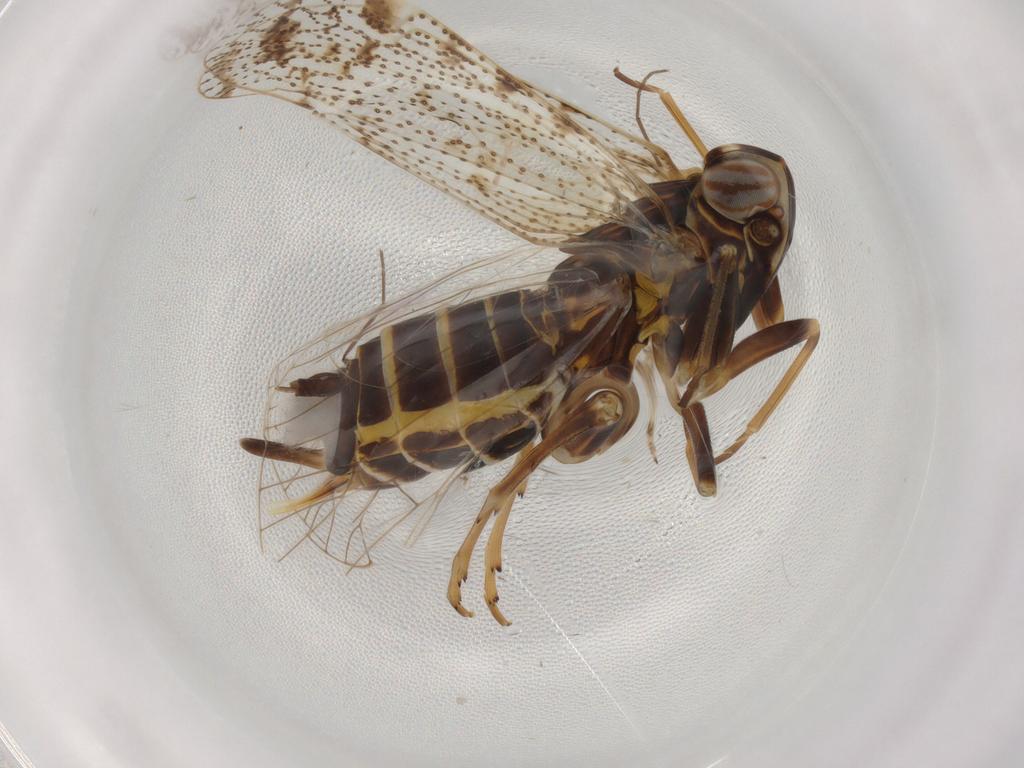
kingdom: Animalia
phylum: Arthropoda
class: Insecta
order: Hemiptera
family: Cixiidae
